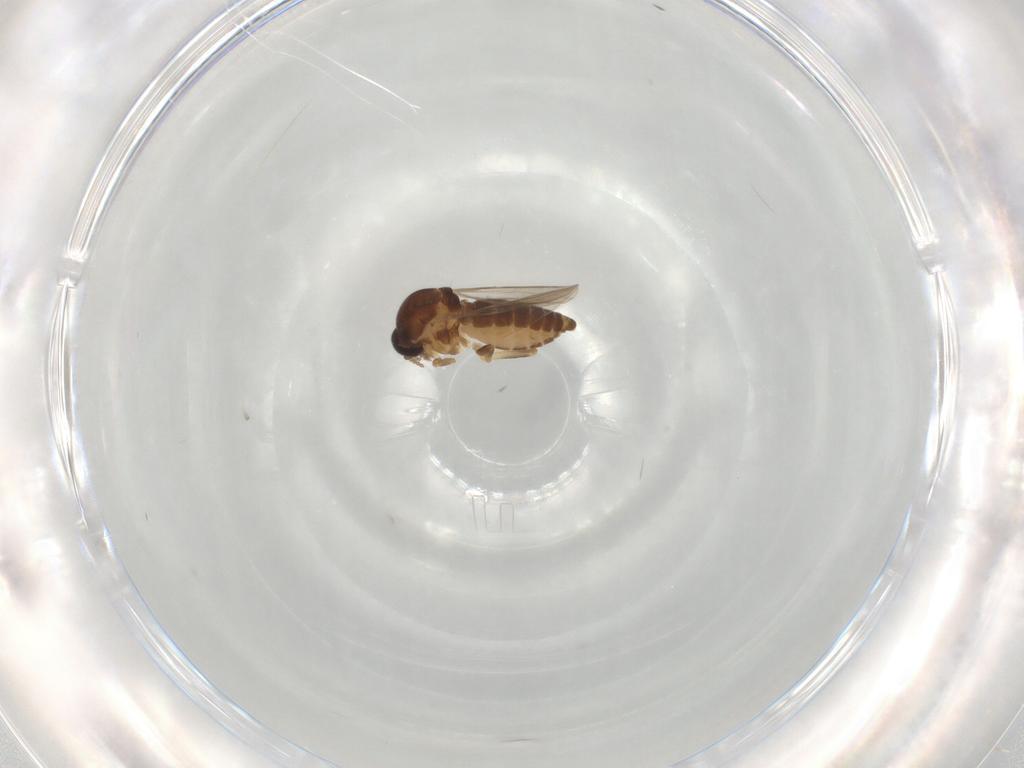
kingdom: Animalia
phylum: Arthropoda
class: Insecta
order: Diptera
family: Ceratopogonidae
